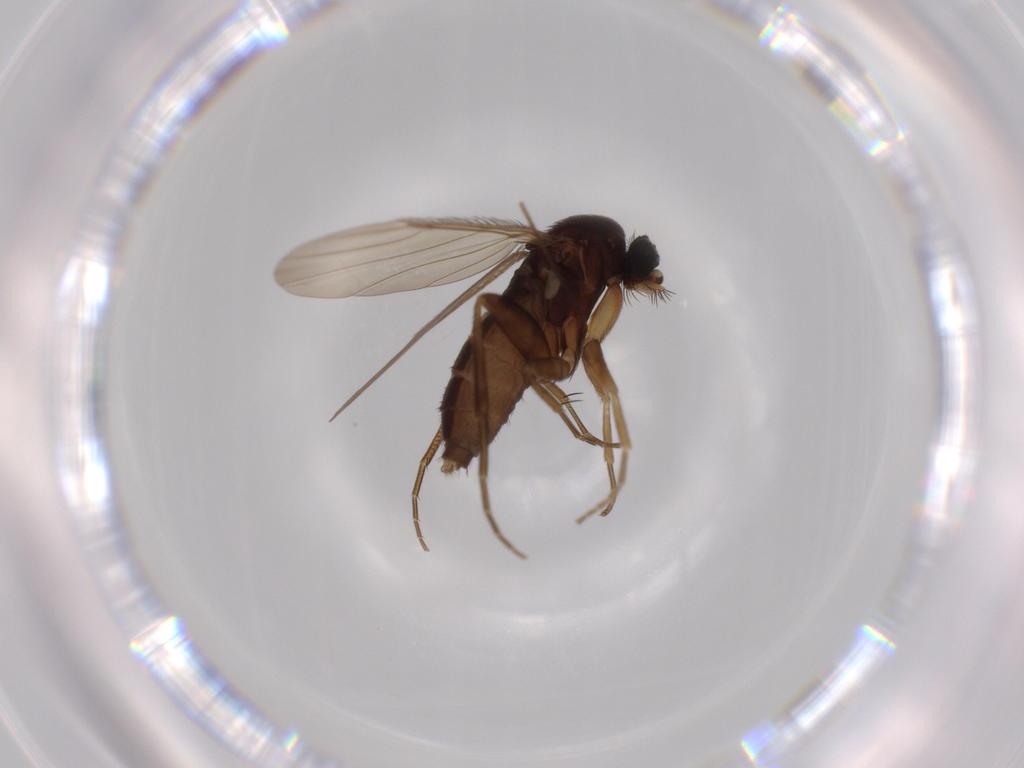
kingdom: Animalia
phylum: Arthropoda
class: Insecta
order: Diptera
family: Phoridae
